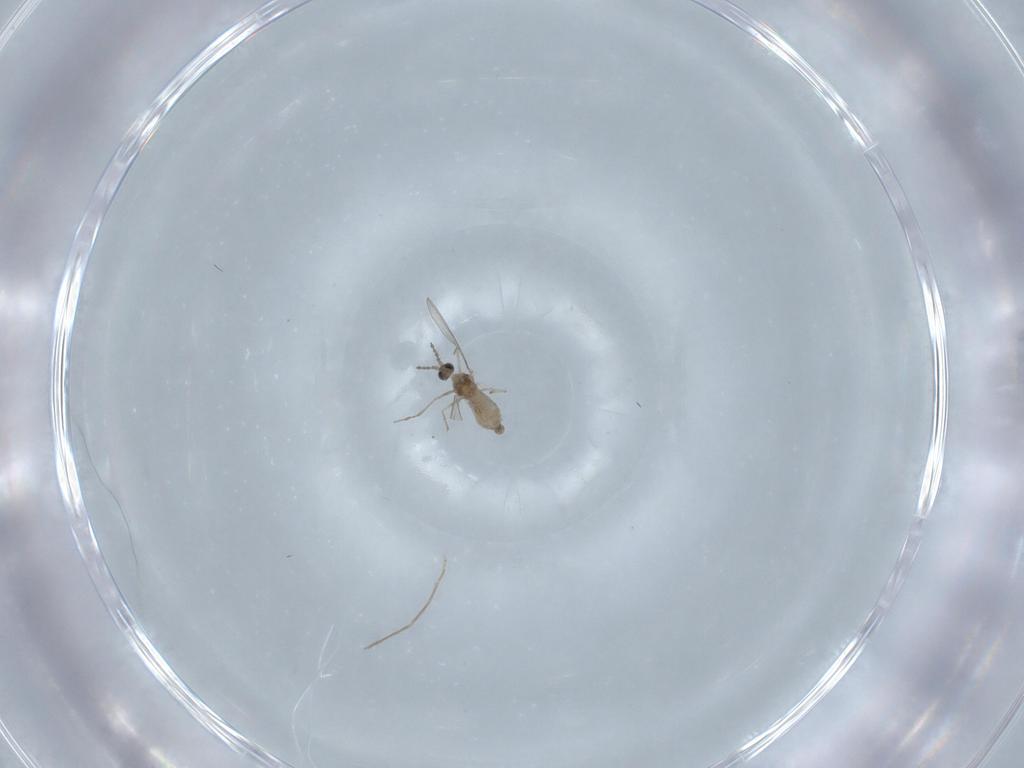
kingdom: Animalia
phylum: Arthropoda
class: Insecta
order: Diptera
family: Cecidomyiidae
